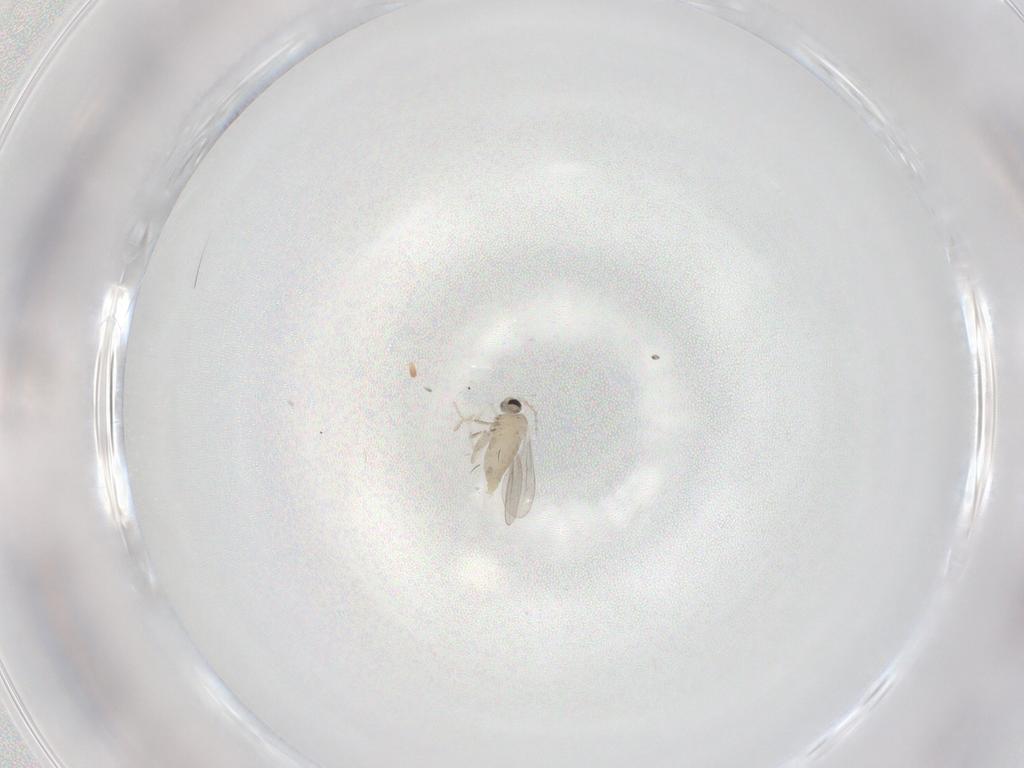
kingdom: Animalia
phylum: Arthropoda
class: Insecta
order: Diptera
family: Cecidomyiidae
